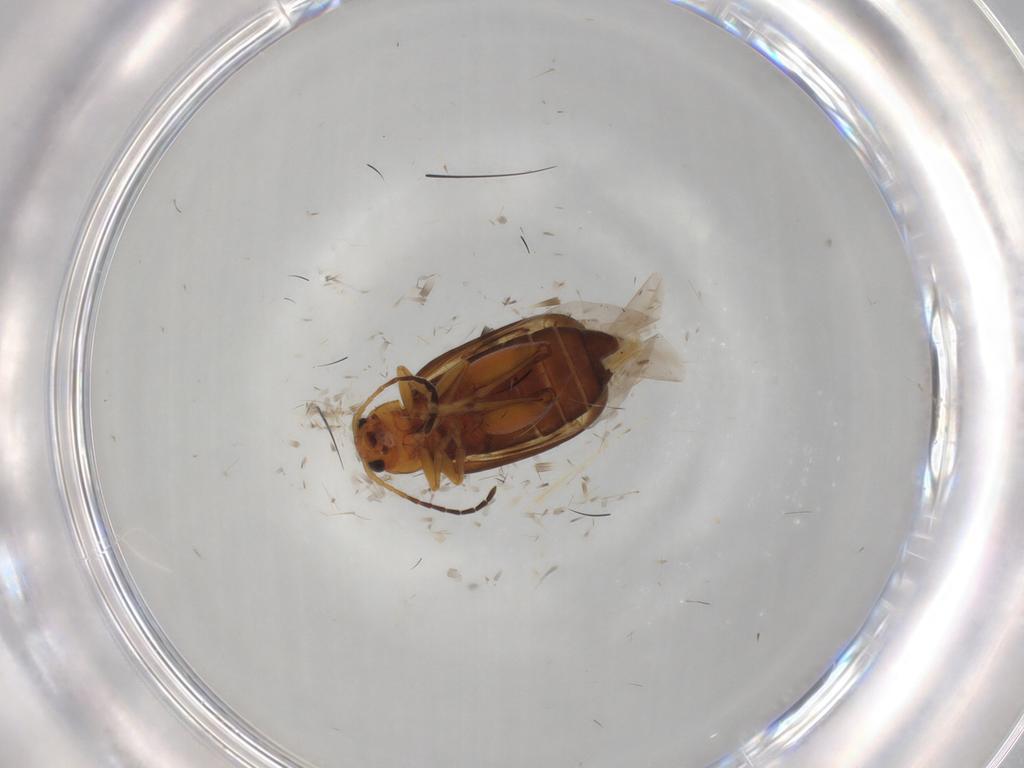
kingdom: Animalia
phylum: Arthropoda
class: Insecta
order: Coleoptera
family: Chrysomelidae
